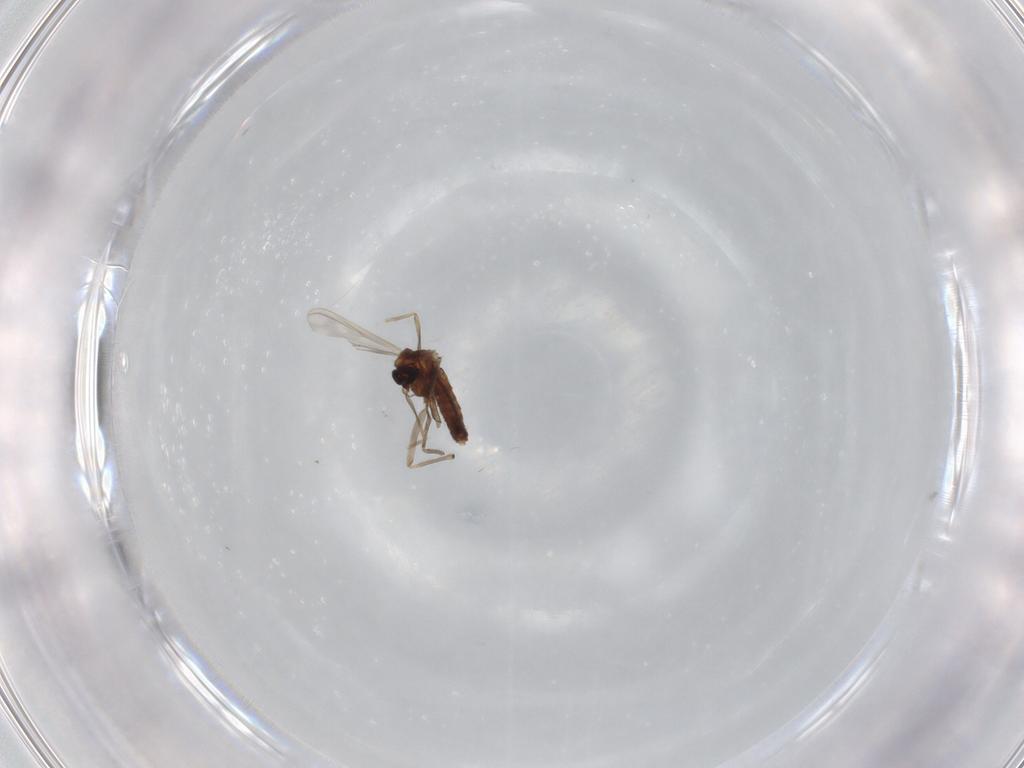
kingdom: Animalia
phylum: Arthropoda
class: Insecta
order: Diptera
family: Chironomidae
